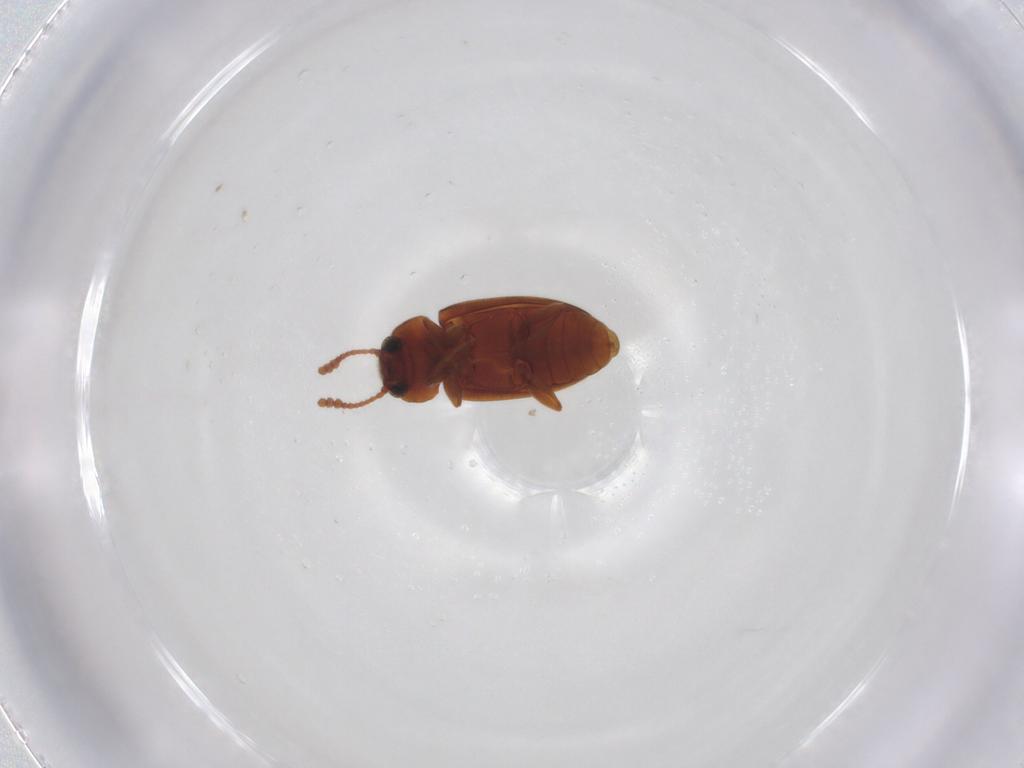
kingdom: Animalia
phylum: Arthropoda
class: Insecta
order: Coleoptera
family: Erotylidae
